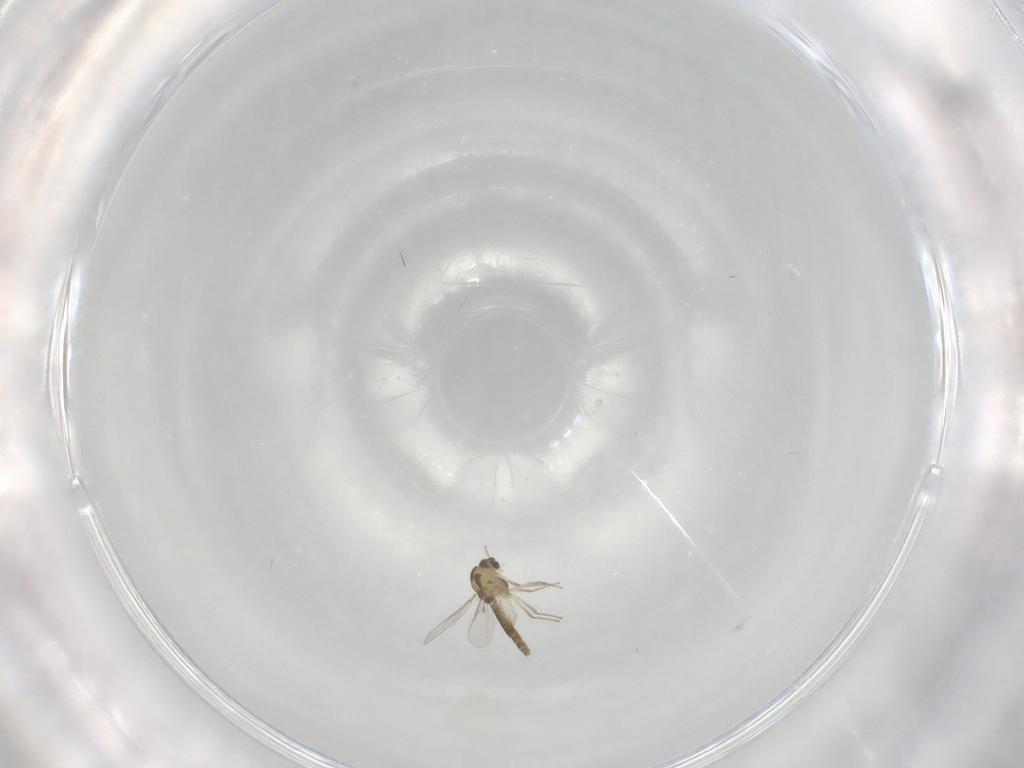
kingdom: Animalia
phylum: Arthropoda
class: Insecta
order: Diptera
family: Chironomidae
